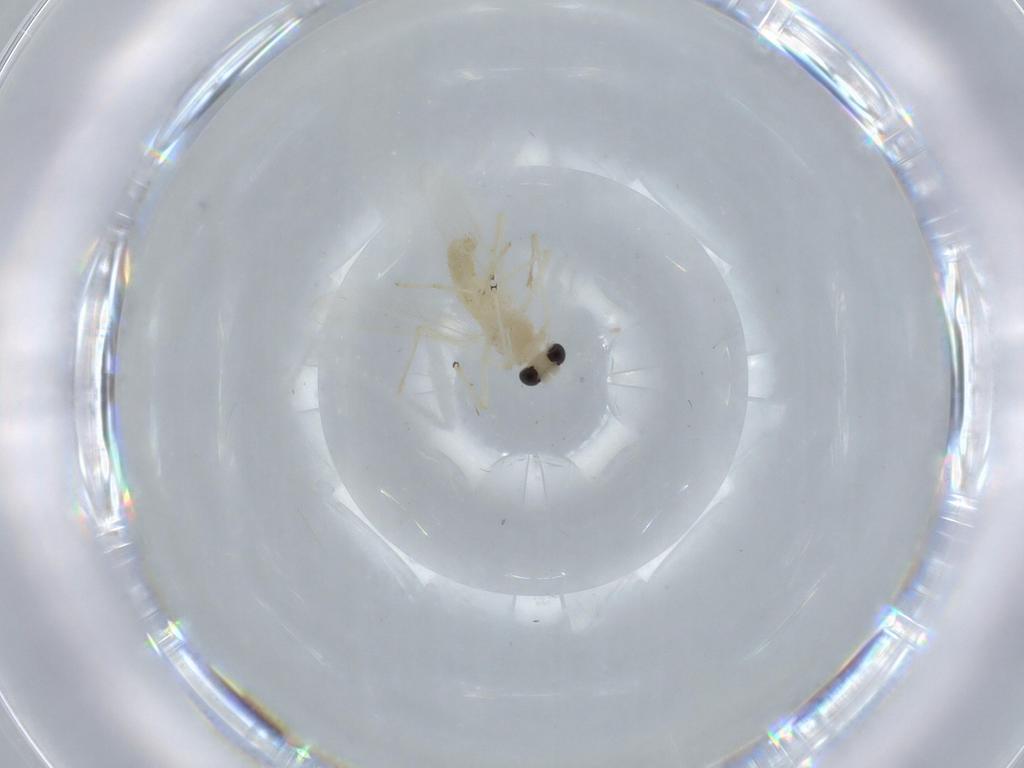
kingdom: Animalia
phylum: Arthropoda
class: Insecta
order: Diptera
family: Chironomidae
